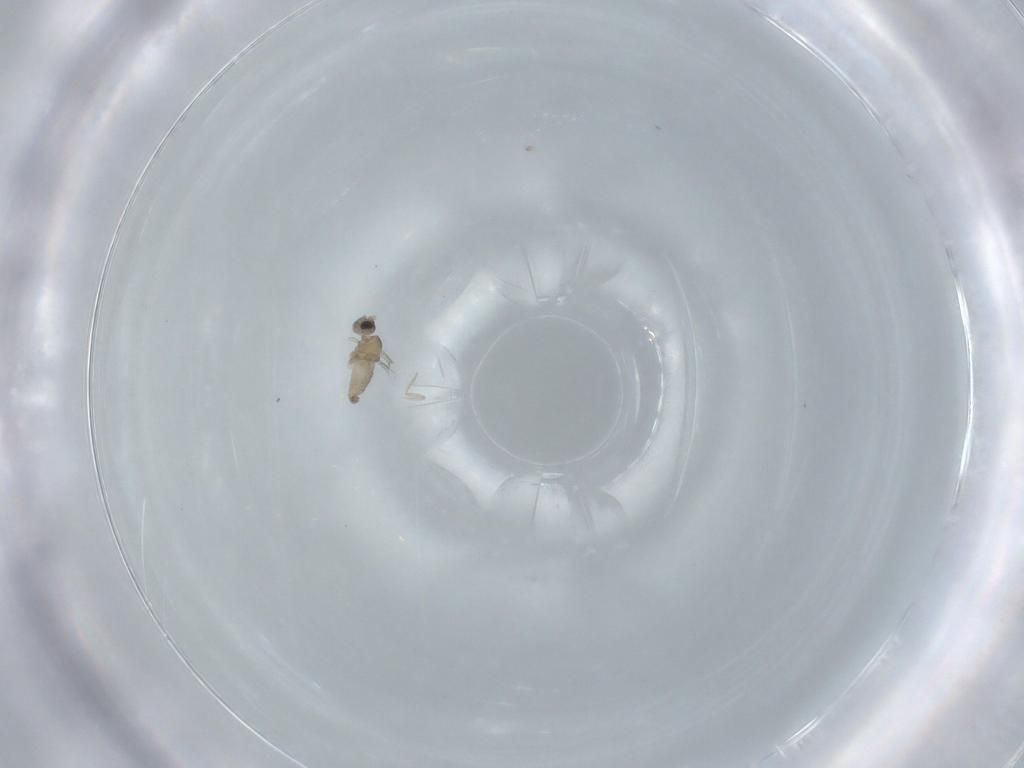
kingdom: Animalia
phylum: Arthropoda
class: Insecta
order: Diptera
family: Cecidomyiidae
